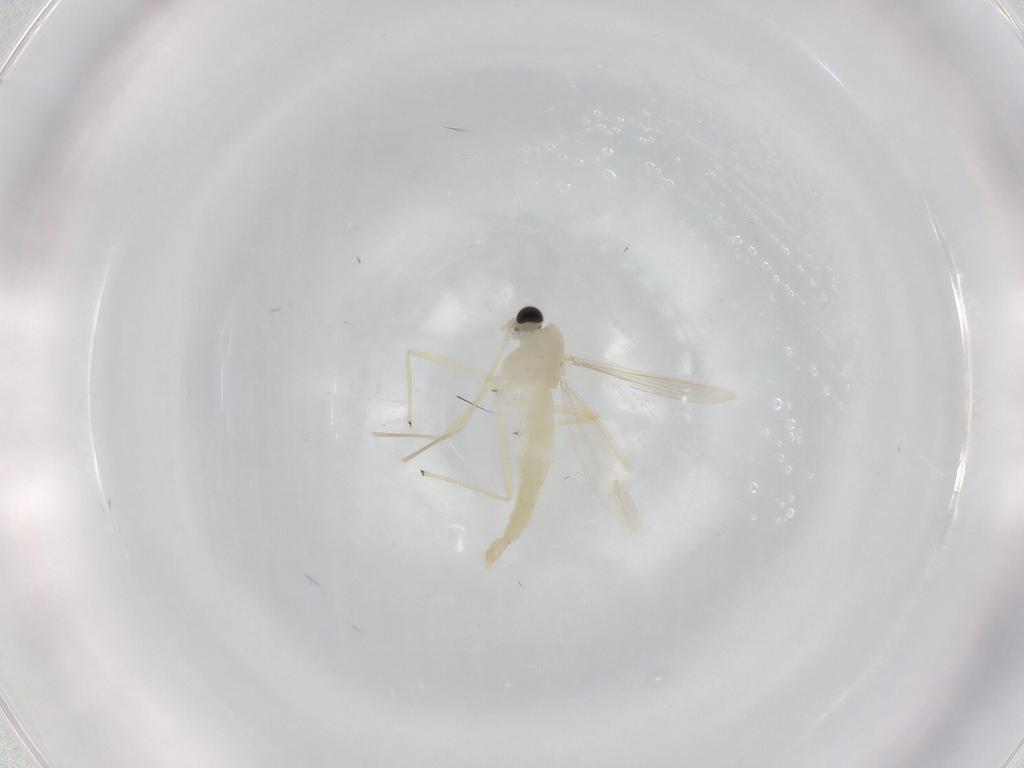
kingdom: Animalia
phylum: Arthropoda
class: Insecta
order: Diptera
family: Chironomidae
